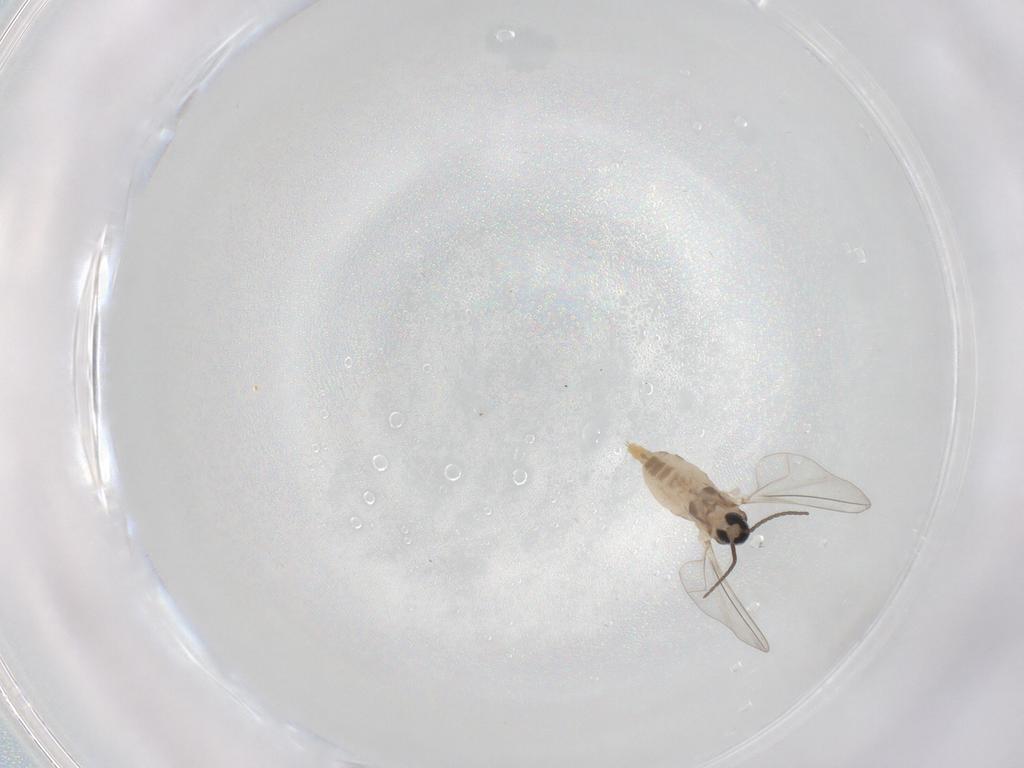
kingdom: Animalia
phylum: Arthropoda
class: Insecta
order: Diptera
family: Cecidomyiidae
